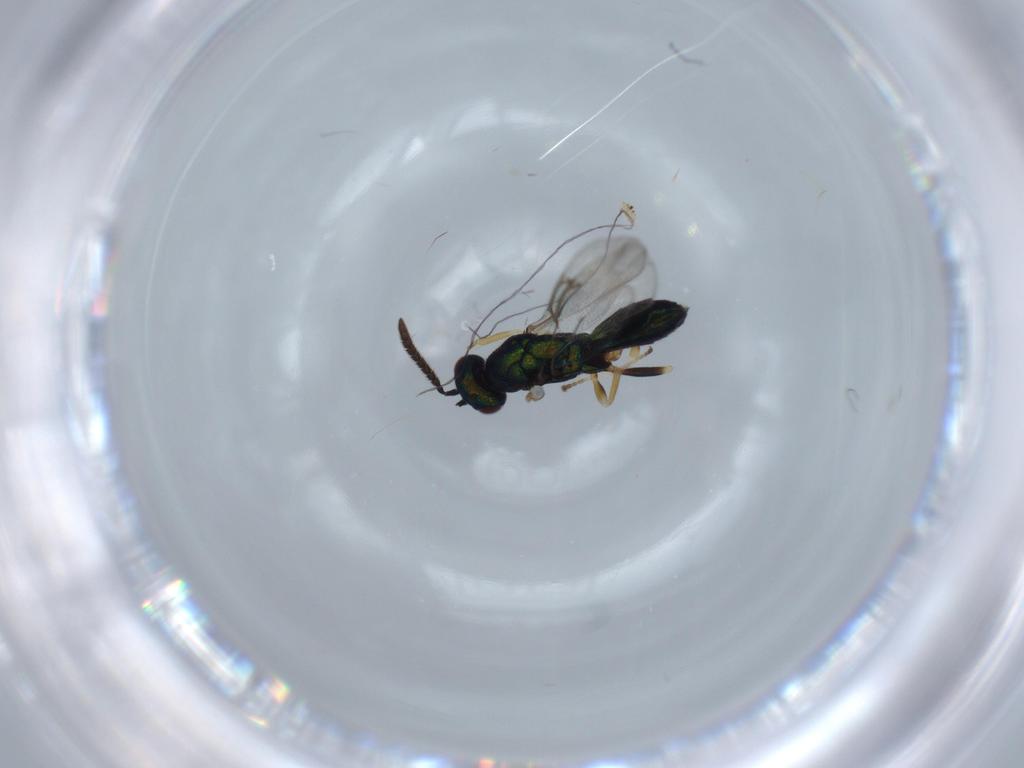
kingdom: Animalia
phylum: Arthropoda
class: Insecta
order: Hymenoptera
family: Torymidae
